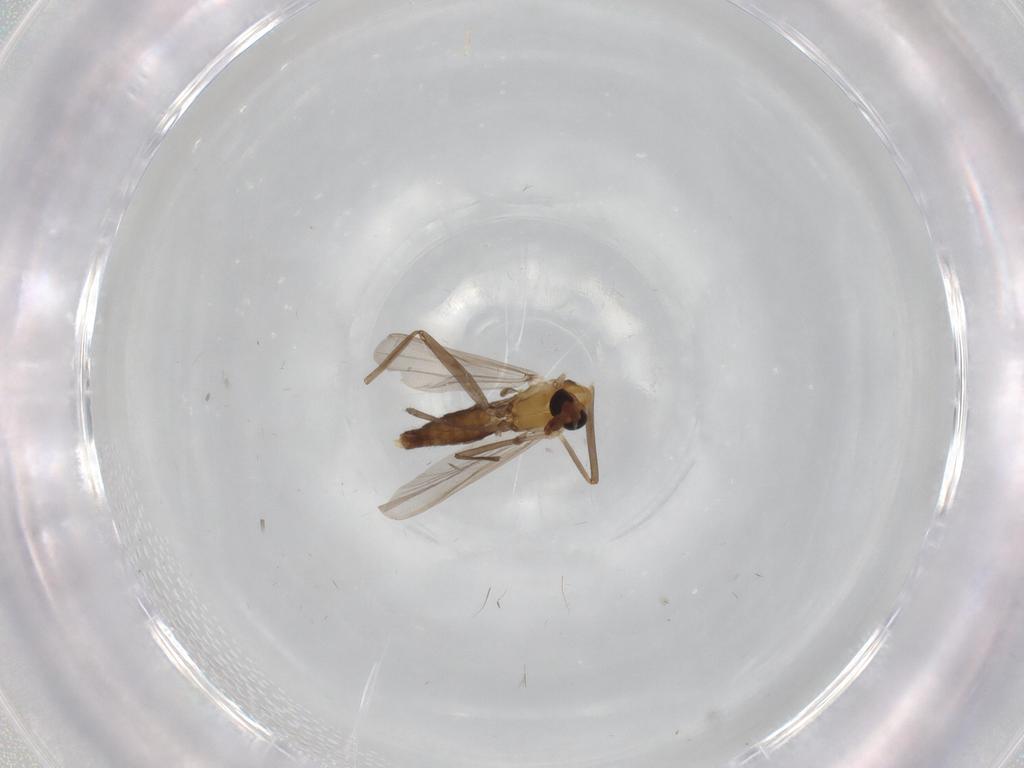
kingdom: Animalia
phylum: Arthropoda
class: Insecta
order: Diptera
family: Chironomidae
